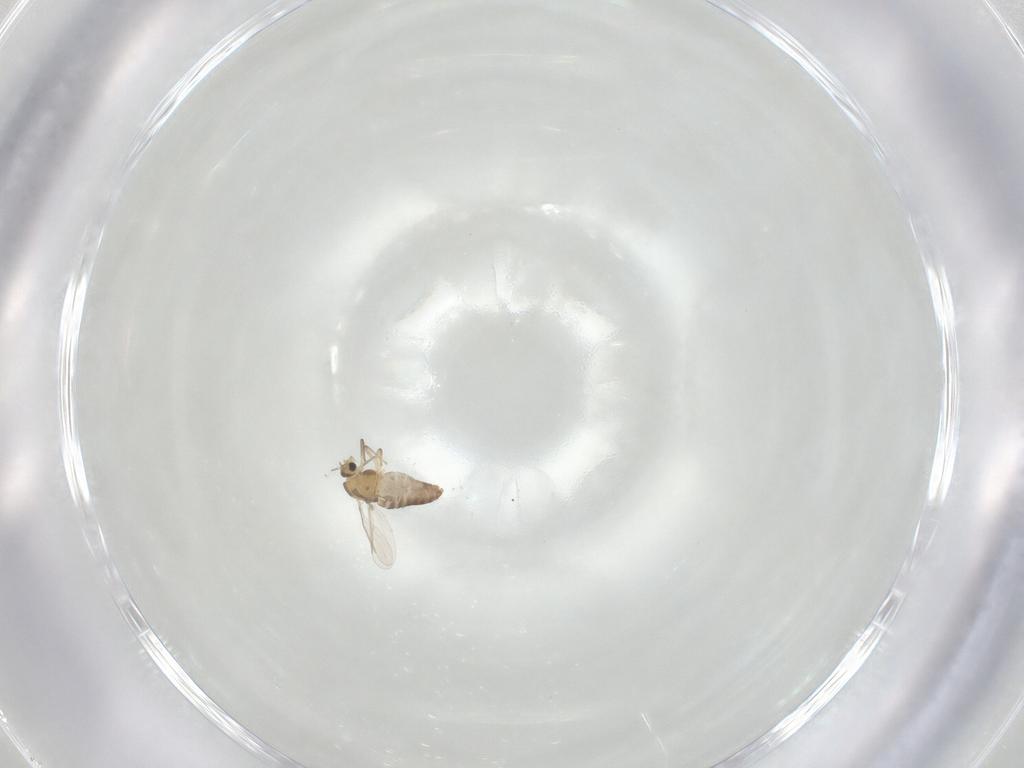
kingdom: Animalia
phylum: Arthropoda
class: Insecta
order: Diptera
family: Chironomidae
